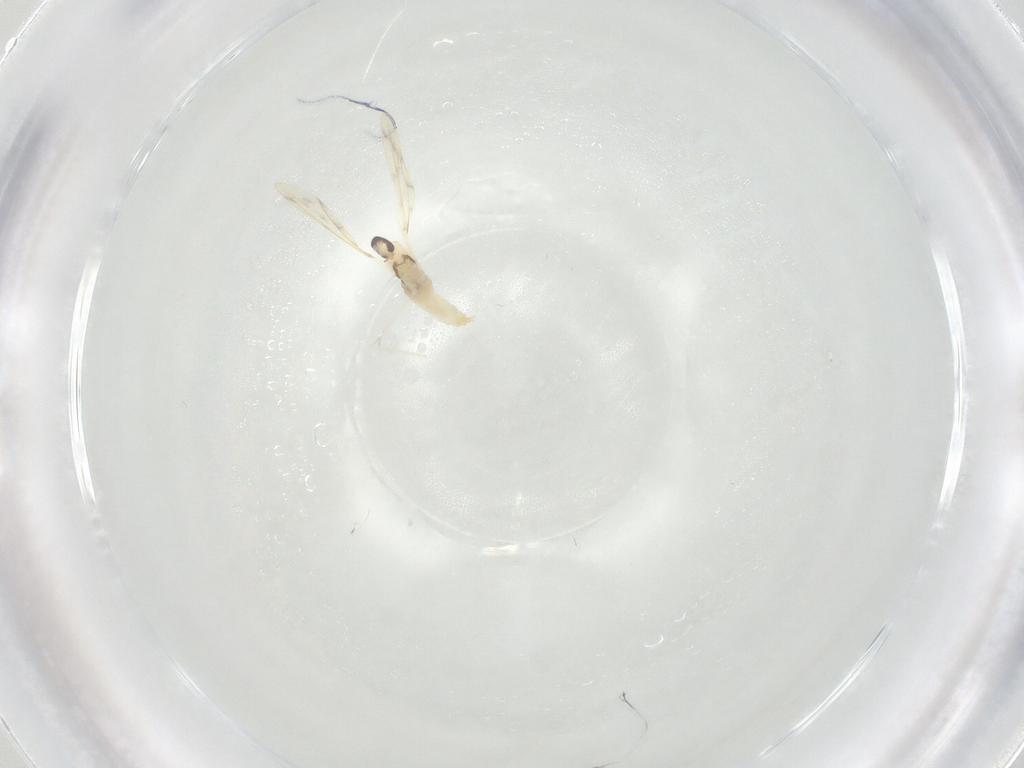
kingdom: Animalia
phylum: Arthropoda
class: Insecta
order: Diptera
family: Cecidomyiidae
